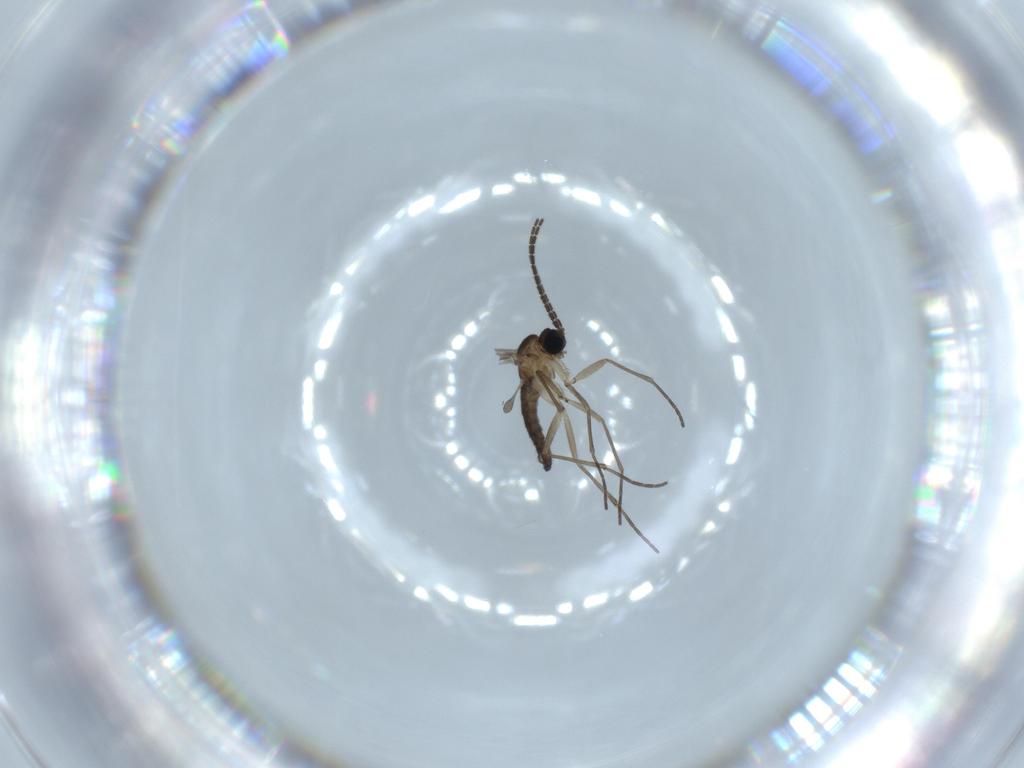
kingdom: Animalia
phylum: Arthropoda
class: Insecta
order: Diptera
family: Sciaridae
